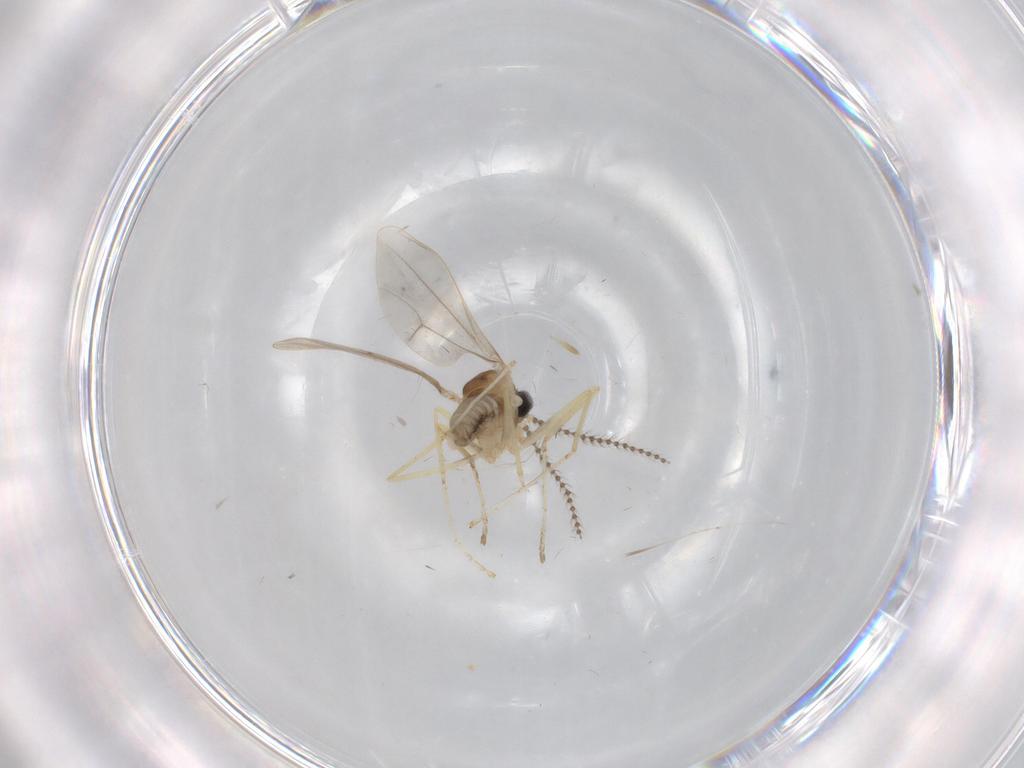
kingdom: Animalia
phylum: Arthropoda
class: Insecta
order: Diptera
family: Cecidomyiidae
